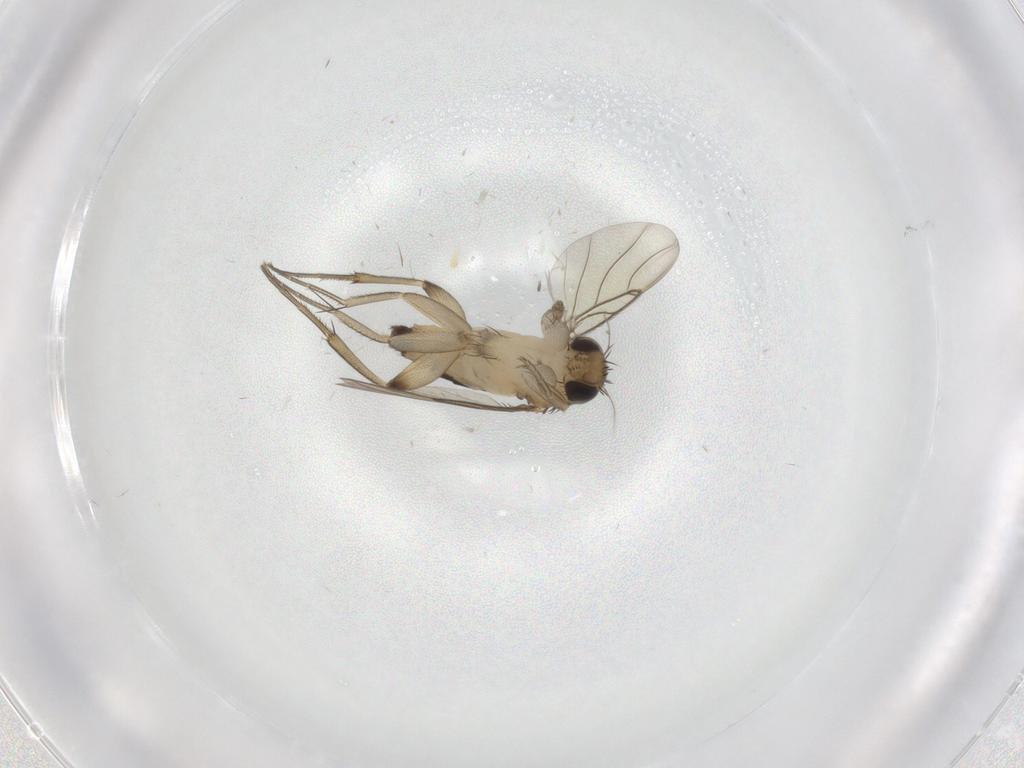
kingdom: Animalia
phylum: Arthropoda
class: Insecta
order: Diptera
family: Phoridae
